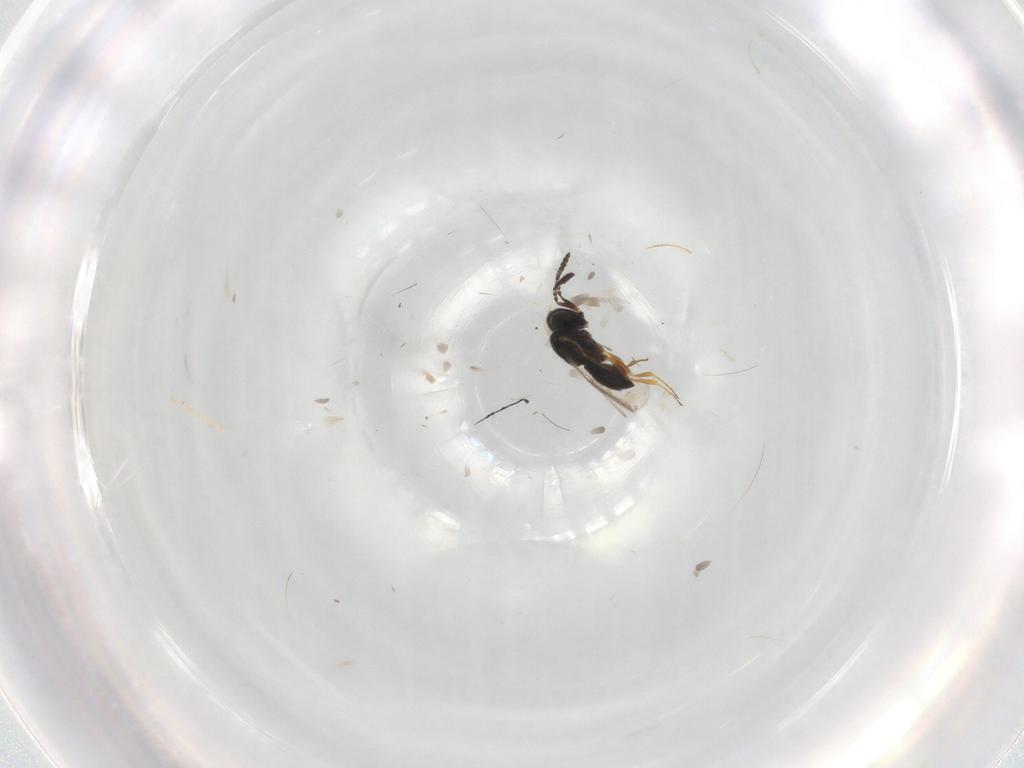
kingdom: Animalia
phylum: Arthropoda
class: Insecta
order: Hymenoptera
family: Scelionidae
